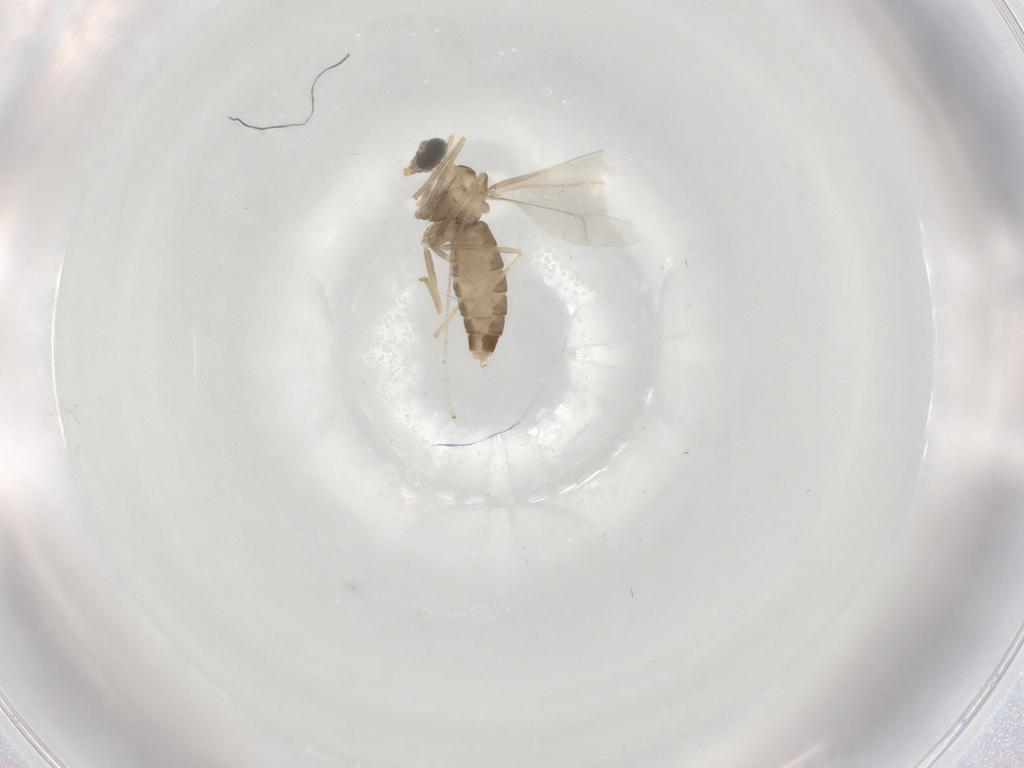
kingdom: Animalia
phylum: Arthropoda
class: Insecta
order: Diptera
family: Cecidomyiidae
